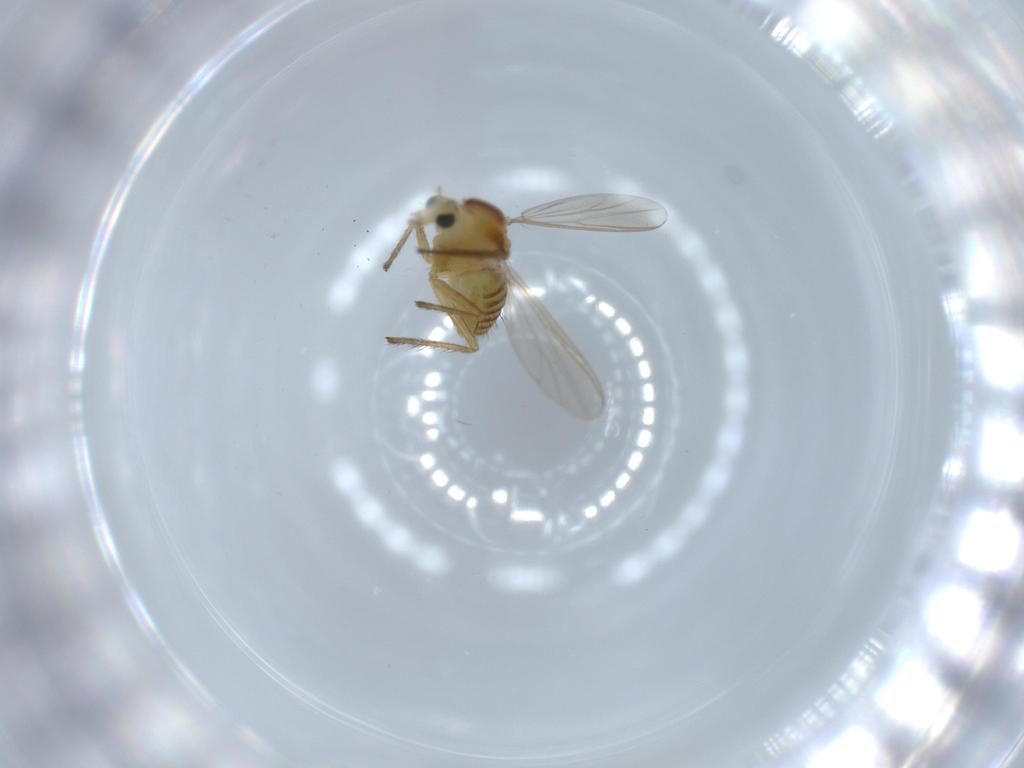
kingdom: Animalia
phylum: Arthropoda
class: Insecta
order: Diptera
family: Chironomidae
